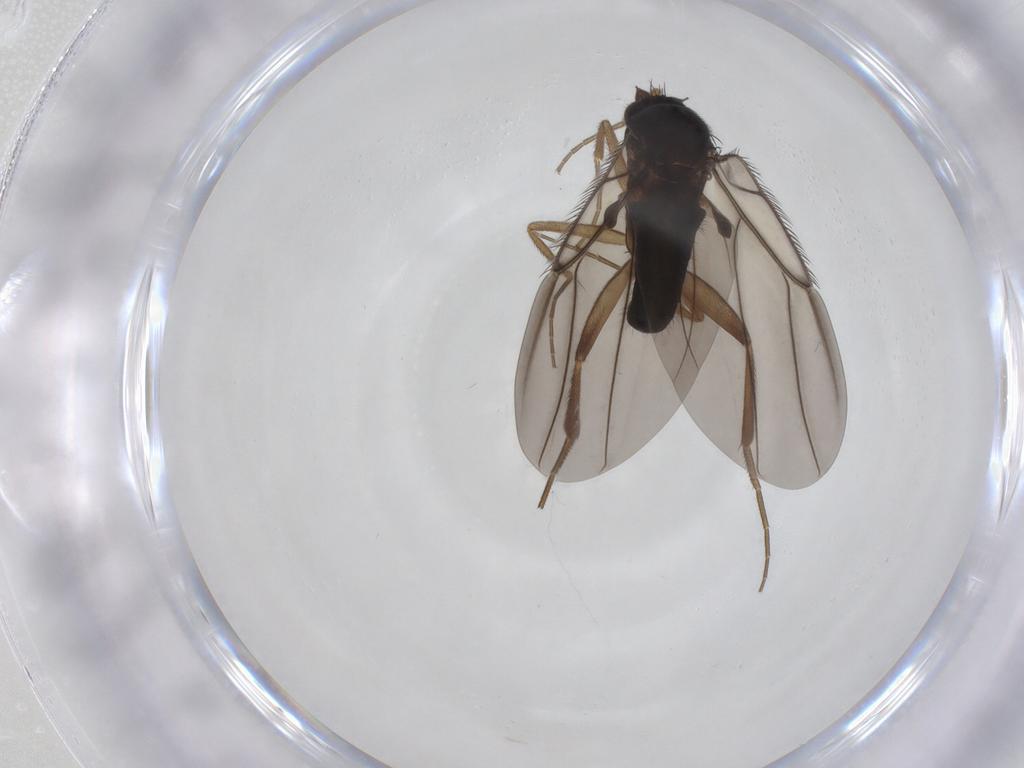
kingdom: Animalia
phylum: Arthropoda
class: Insecta
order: Diptera
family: Phoridae
